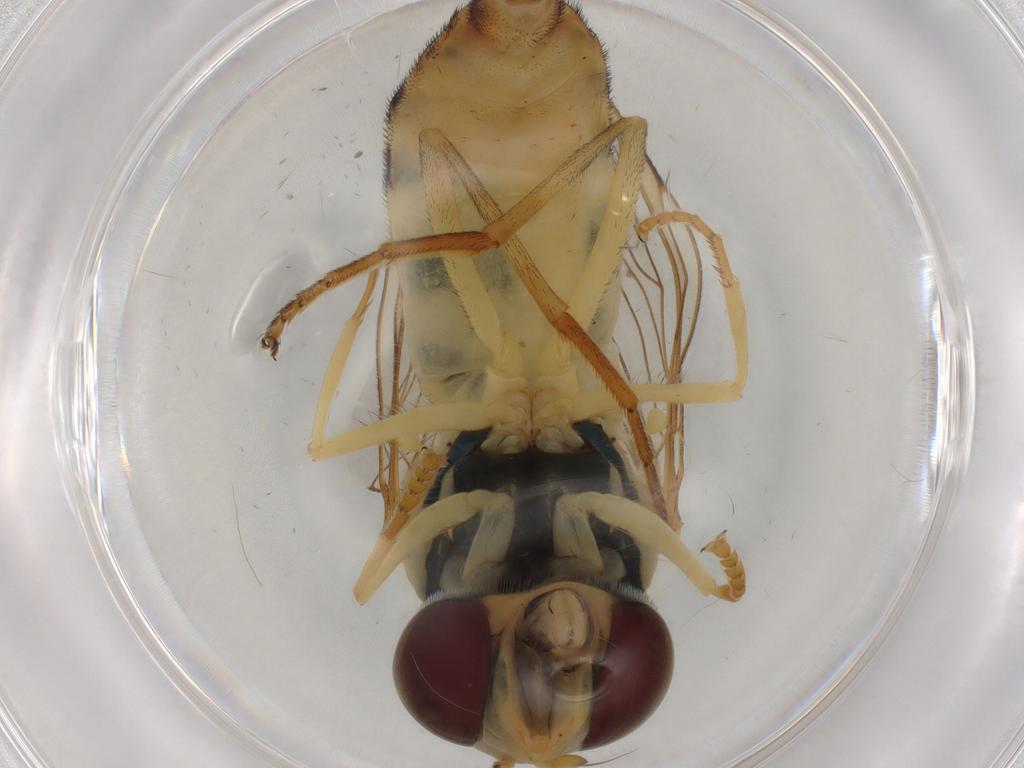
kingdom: Animalia
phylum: Arthropoda
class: Insecta
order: Diptera
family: Syrphidae
